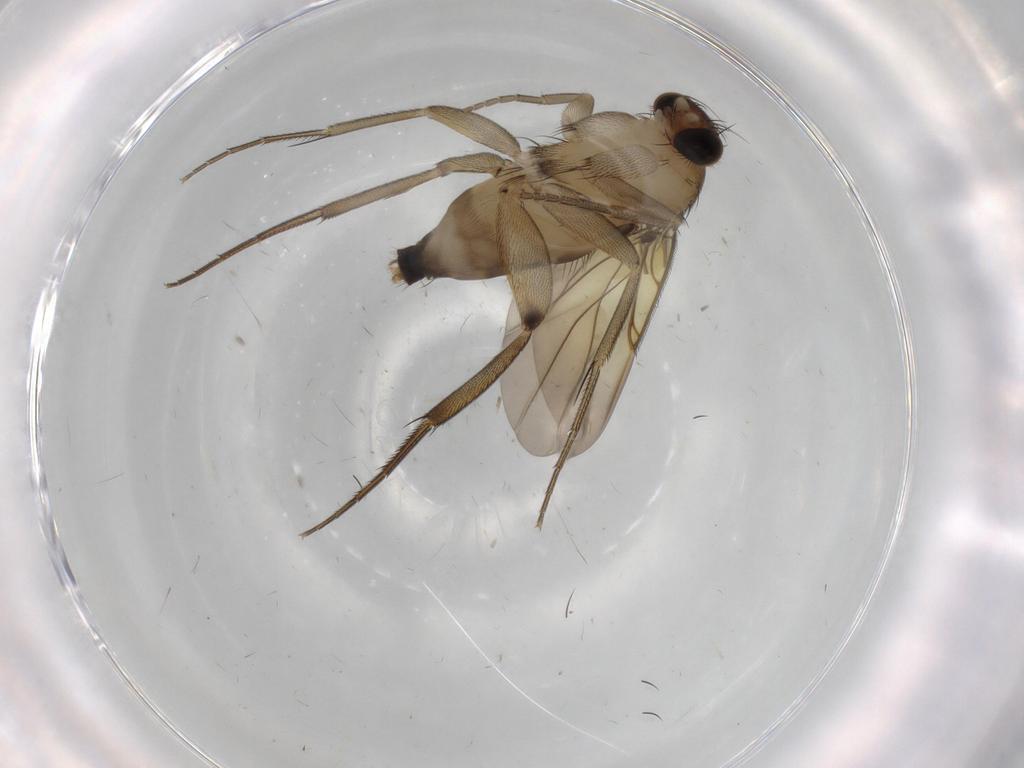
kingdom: Animalia
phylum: Arthropoda
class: Insecta
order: Diptera
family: Phoridae
